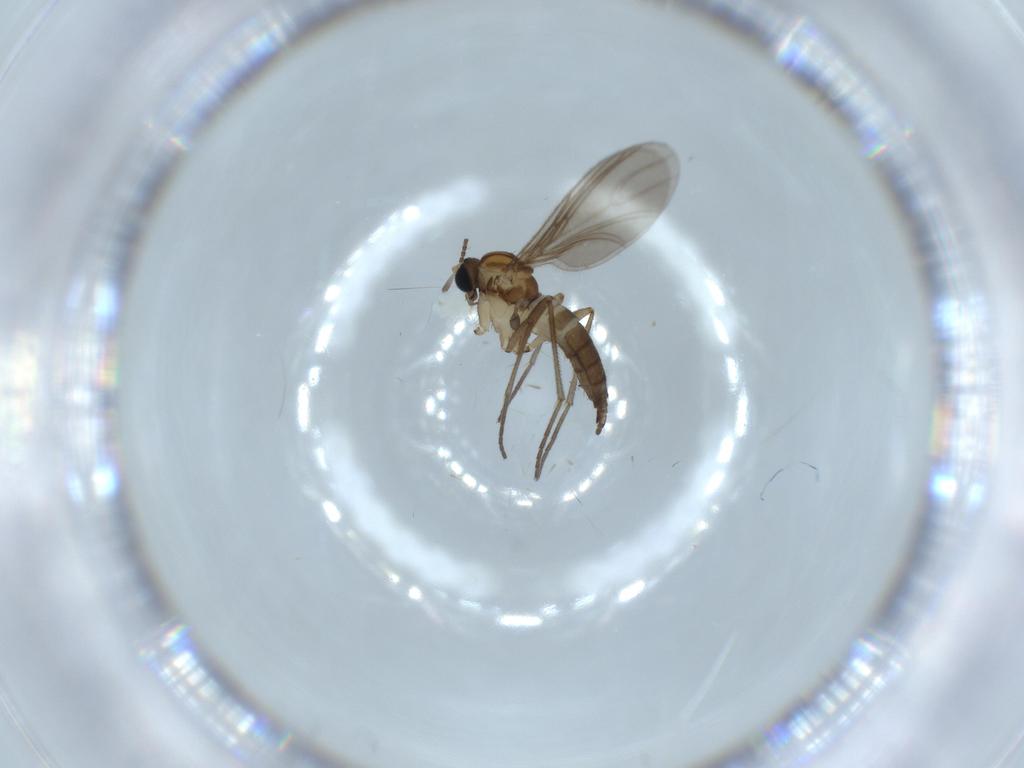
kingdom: Animalia
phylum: Arthropoda
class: Insecta
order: Diptera
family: Sciaridae
